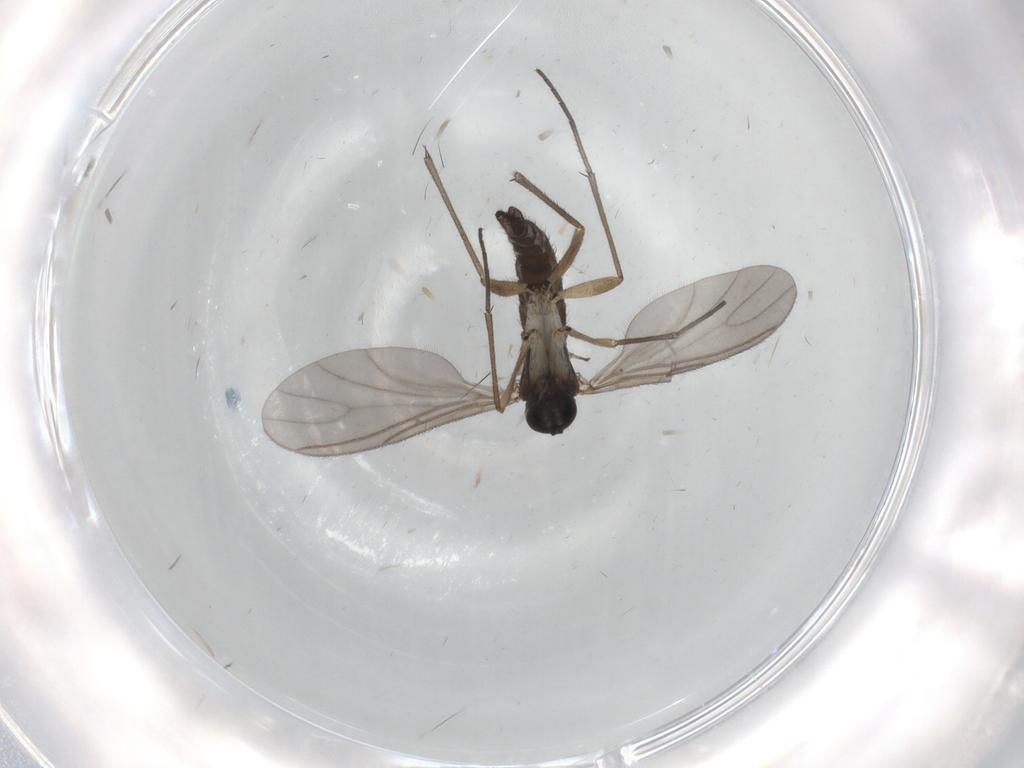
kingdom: Animalia
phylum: Arthropoda
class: Insecta
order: Diptera
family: Sciaridae
